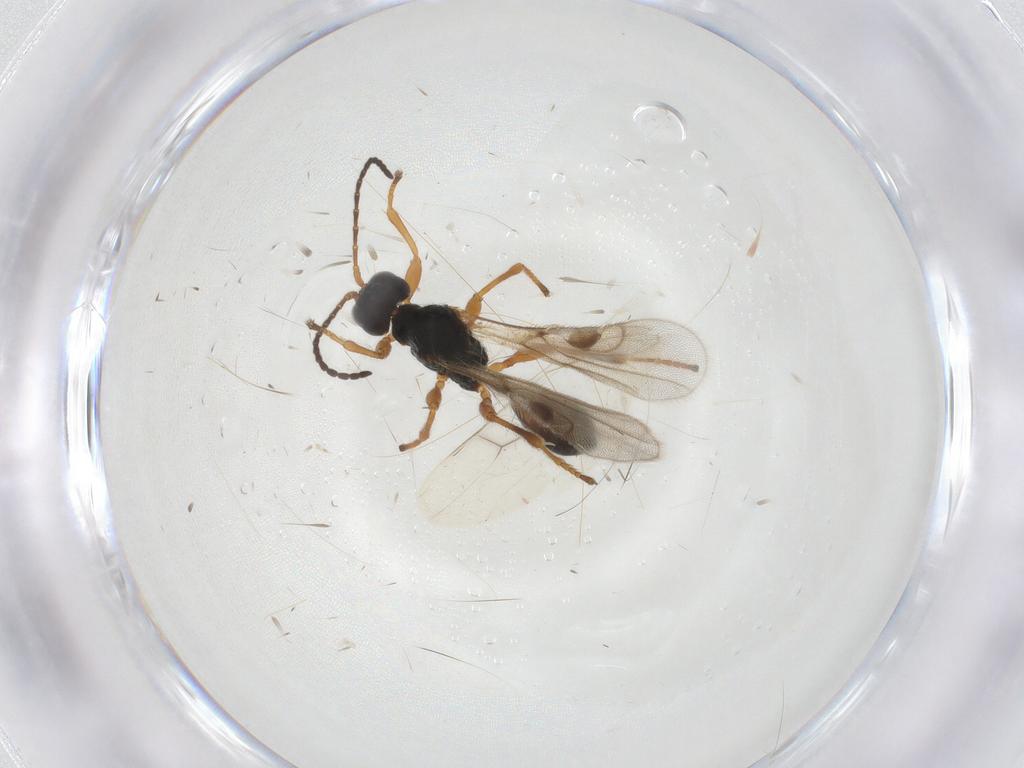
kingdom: Animalia
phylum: Arthropoda
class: Insecta
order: Hymenoptera
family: Braconidae
